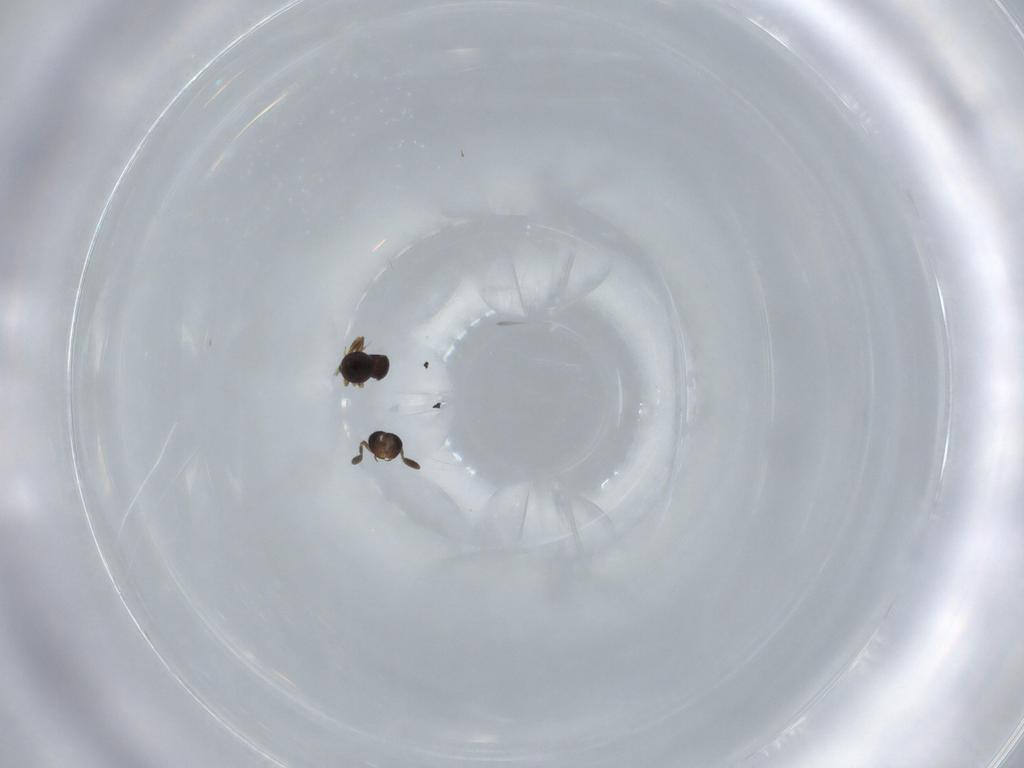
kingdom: Animalia
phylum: Arthropoda
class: Insecta
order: Hymenoptera
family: Scelionidae
